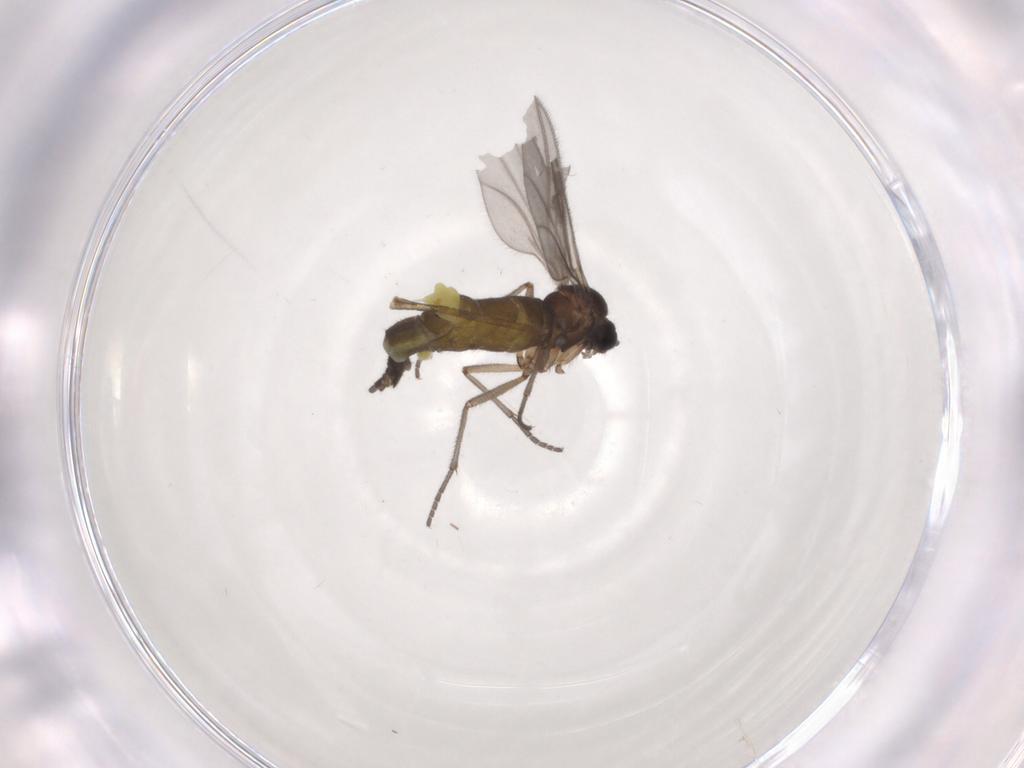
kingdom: Animalia
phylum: Arthropoda
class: Insecta
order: Diptera
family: Sciaridae
